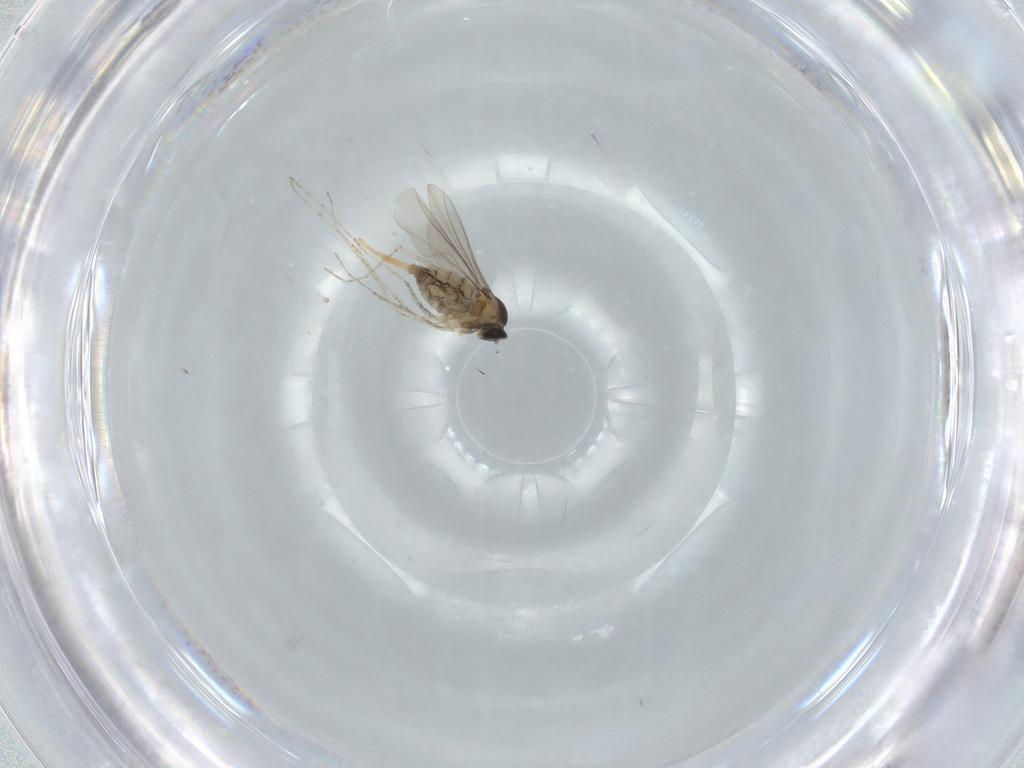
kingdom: Animalia
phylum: Arthropoda
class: Insecta
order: Diptera
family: Cecidomyiidae
